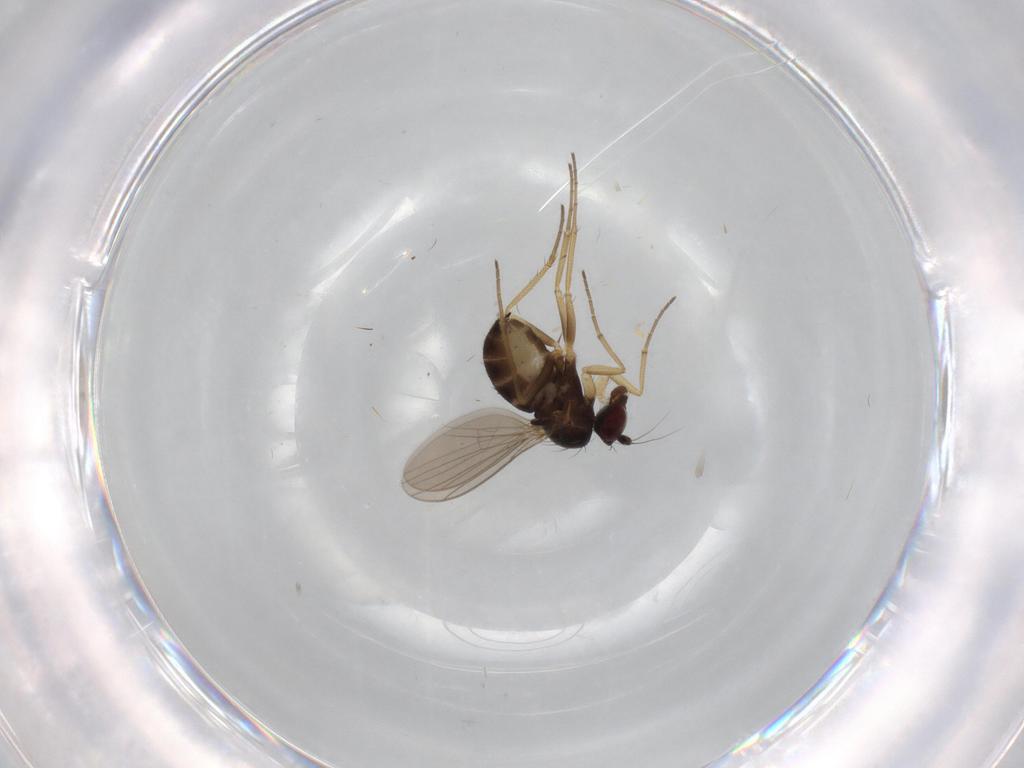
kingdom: Animalia
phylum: Arthropoda
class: Insecta
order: Diptera
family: Dolichopodidae
